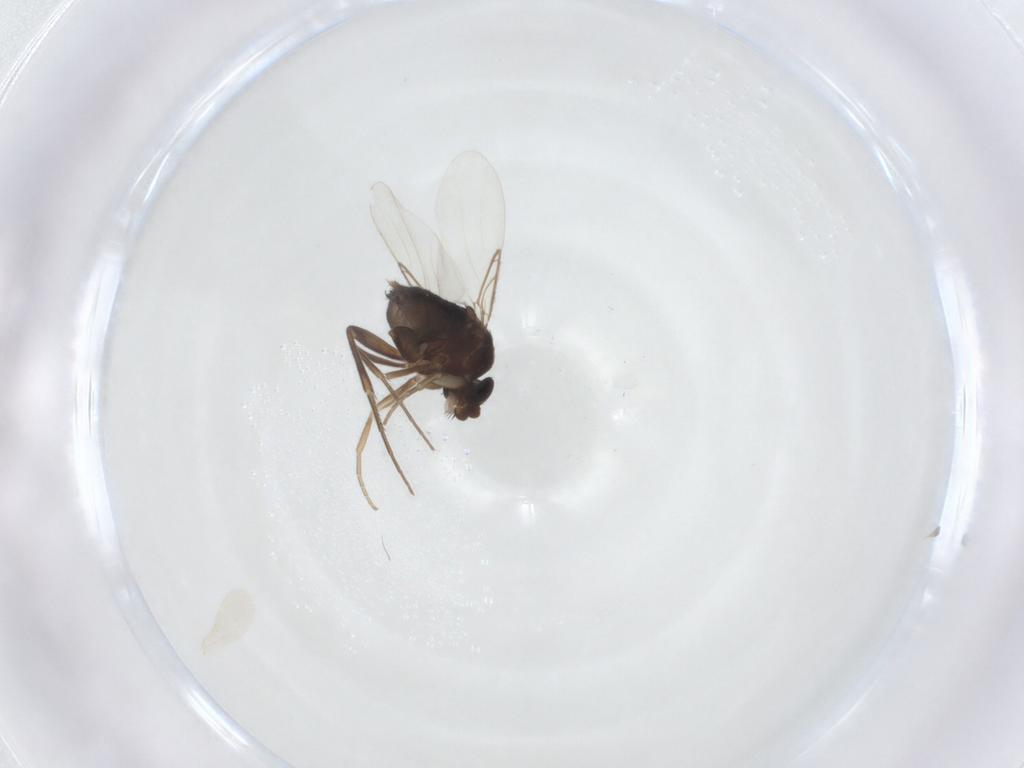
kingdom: Animalia
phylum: Arthropoda
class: Insecta
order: Diptera
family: Phoridae
